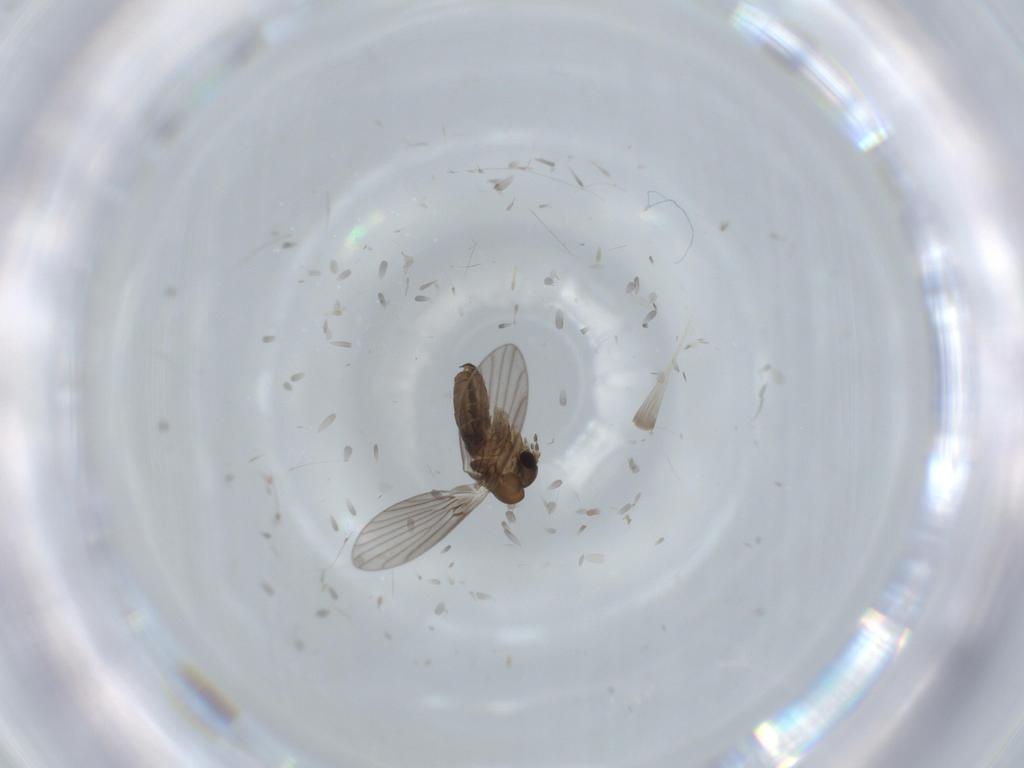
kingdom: Animalia
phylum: Arthropoda
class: Insecta
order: Diptera
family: Psychodidae
